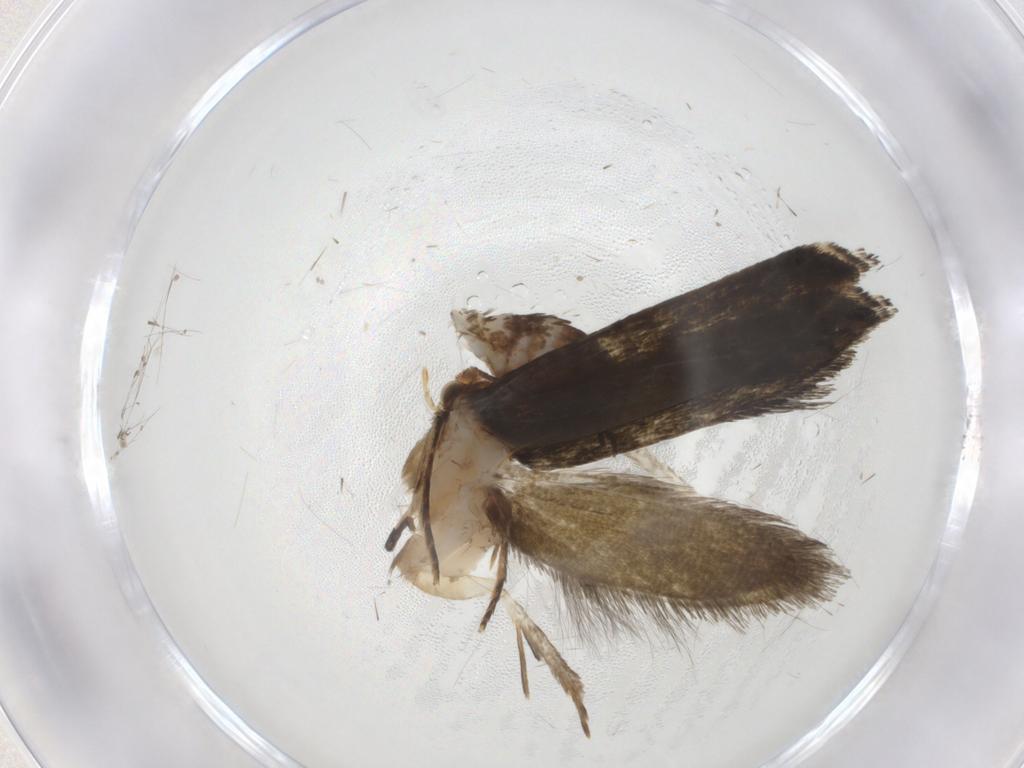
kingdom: Animalia
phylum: Arthropoda
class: Insecta
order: Lepidoptera
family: Tineidae
